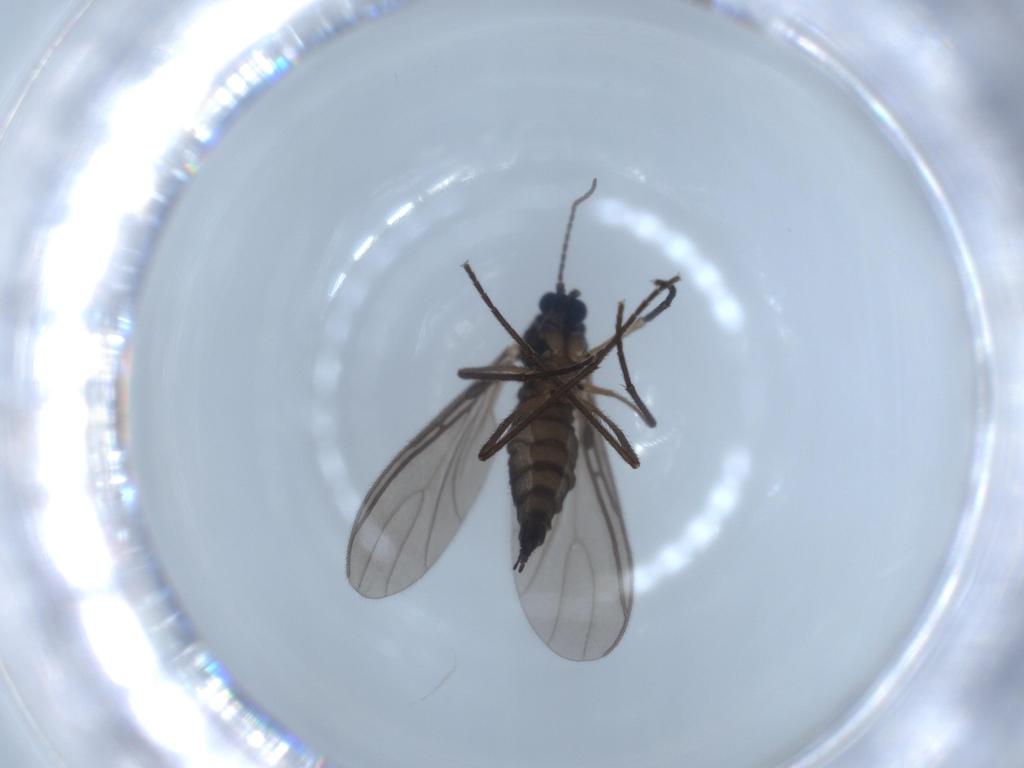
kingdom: Animalia
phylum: Arthropoda
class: Insecta
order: Diptera
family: Sciaridae
